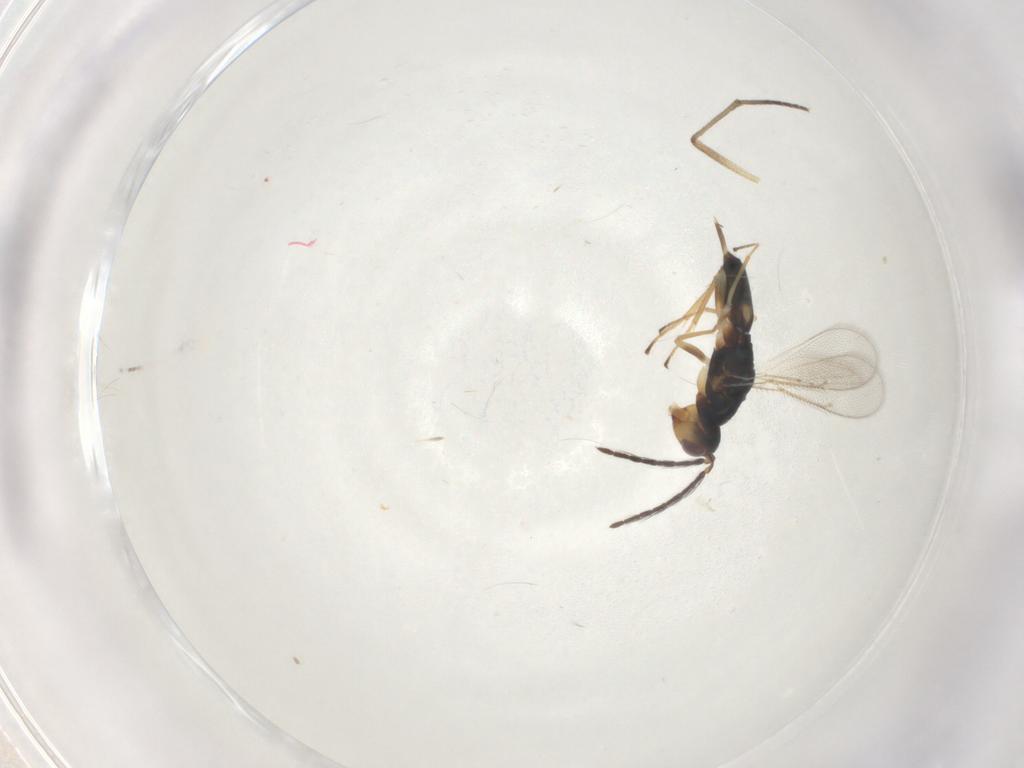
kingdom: Animalia
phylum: Arthropoda
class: Insecta
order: Hymenoptera
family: Eulophidae
